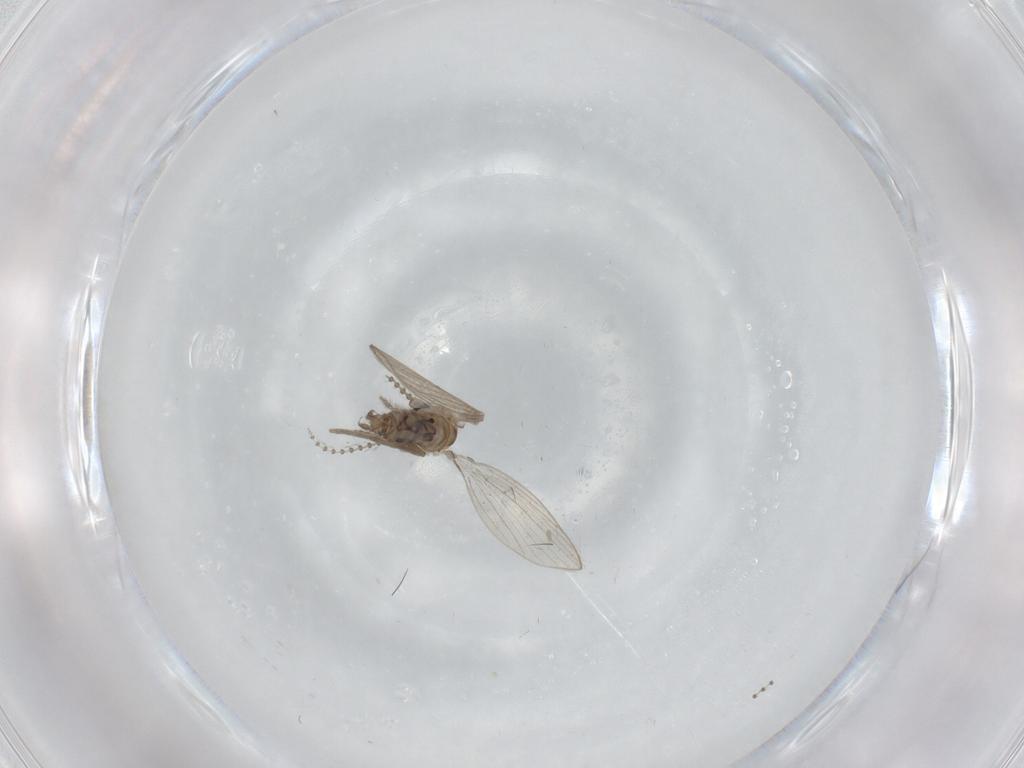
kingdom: Animalia
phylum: Arthropoda
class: Insecta
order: Diptera
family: Psychodidae
